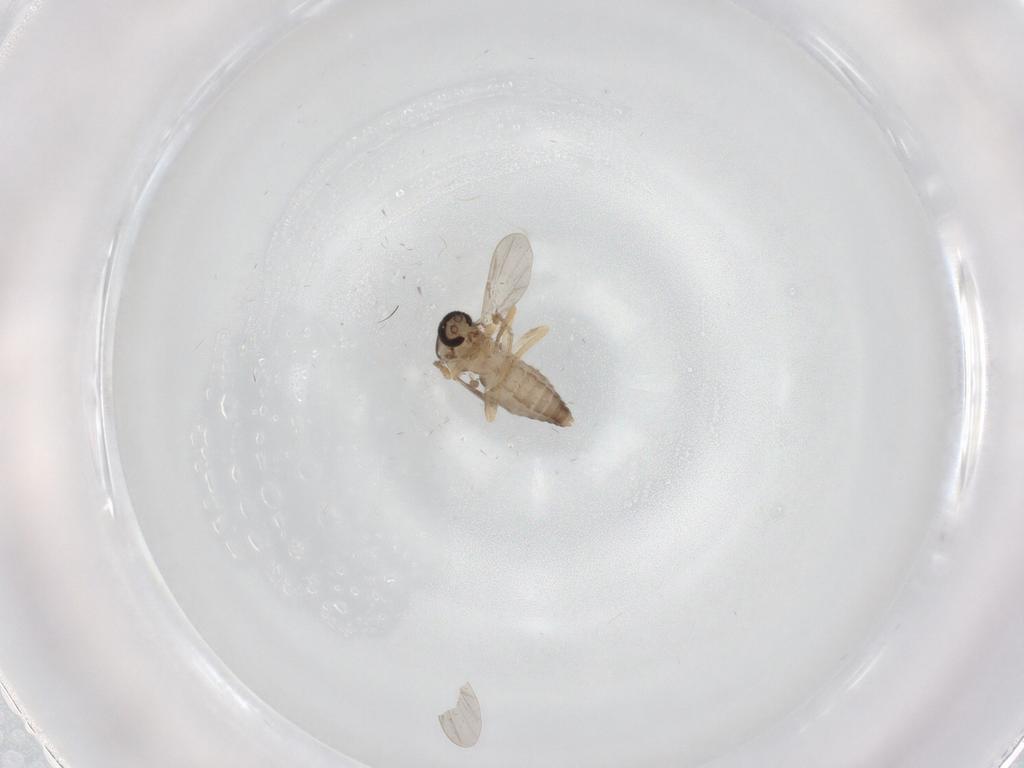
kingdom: Animalia
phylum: Arthropoda
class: Insecta
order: Diptera
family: Ceratopogonidae
